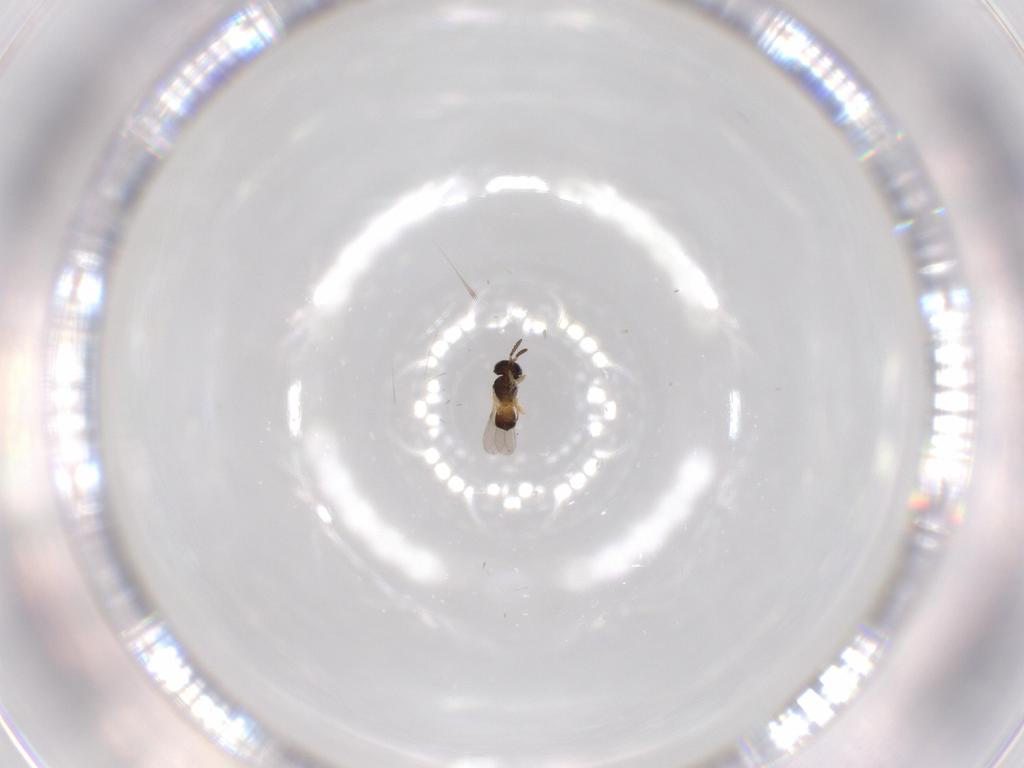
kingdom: Animalia
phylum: Arthropoda
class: Insecta
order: Hymenoptera
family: Scelionidae
